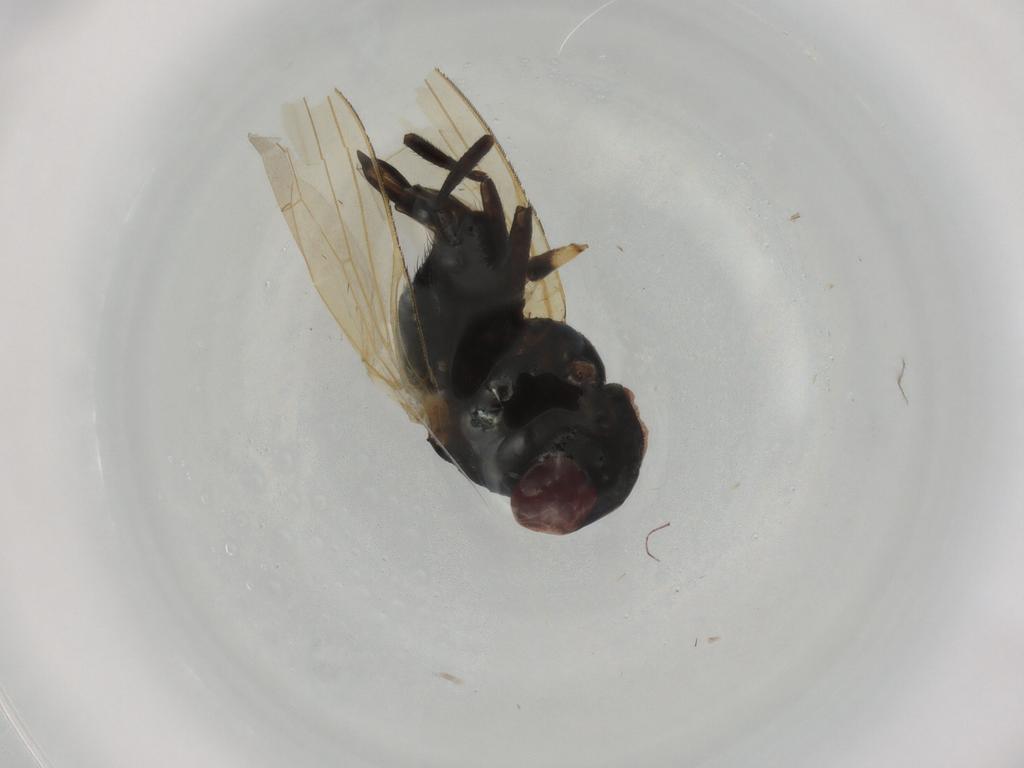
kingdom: Animalia
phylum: Arthropoda
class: Insecta
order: Diptera
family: Lonchaeidae
